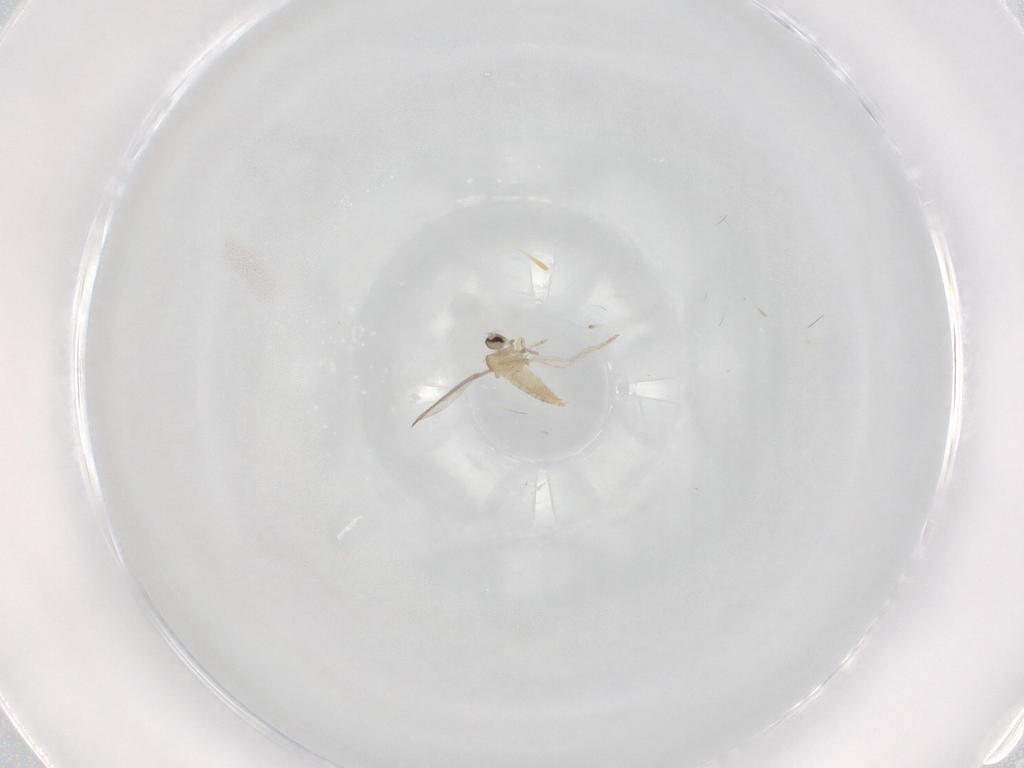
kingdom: Animalia
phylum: Arthropoda
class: Insecta
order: Diptera
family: Cecidomyiidae
